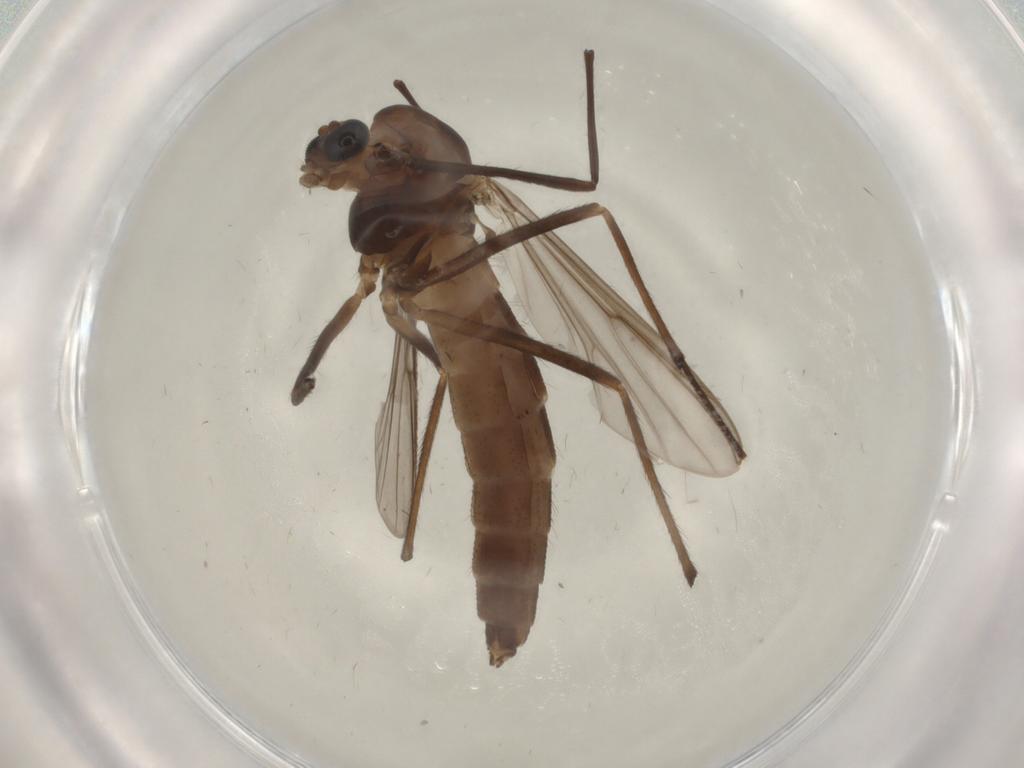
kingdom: Animalia
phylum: Arthropoda
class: Insecta
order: Diptera
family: Chironomidae
